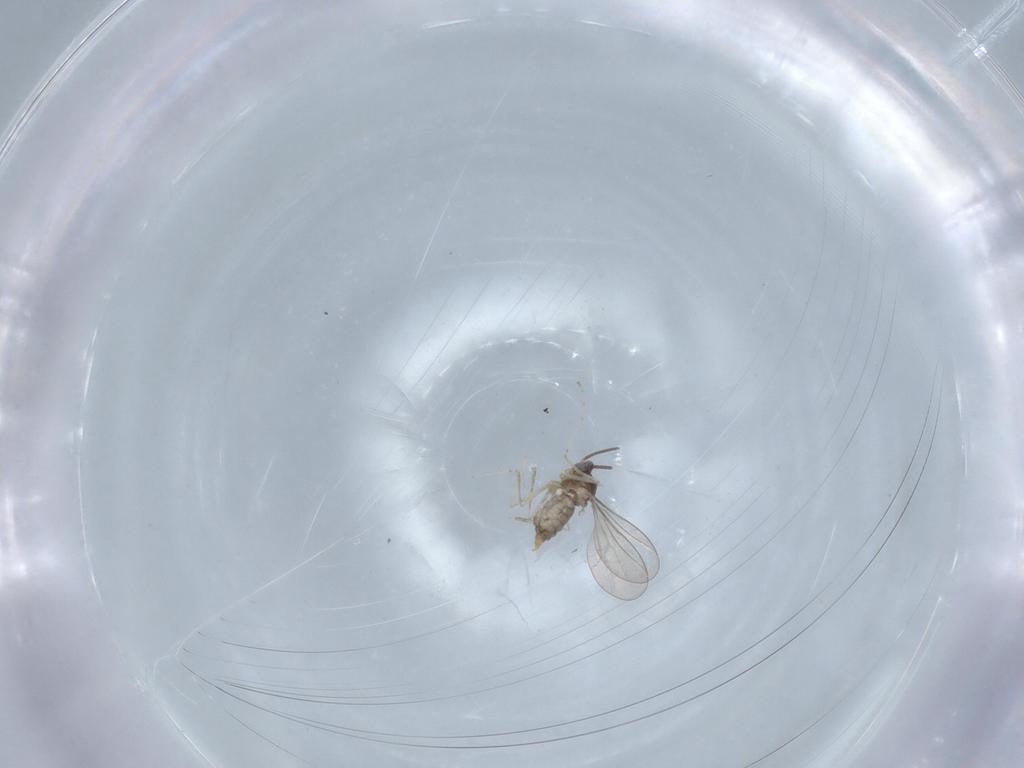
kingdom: Animalia
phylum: Arthropoda
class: Insecta
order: Diptera
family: Cecidomyiidae
